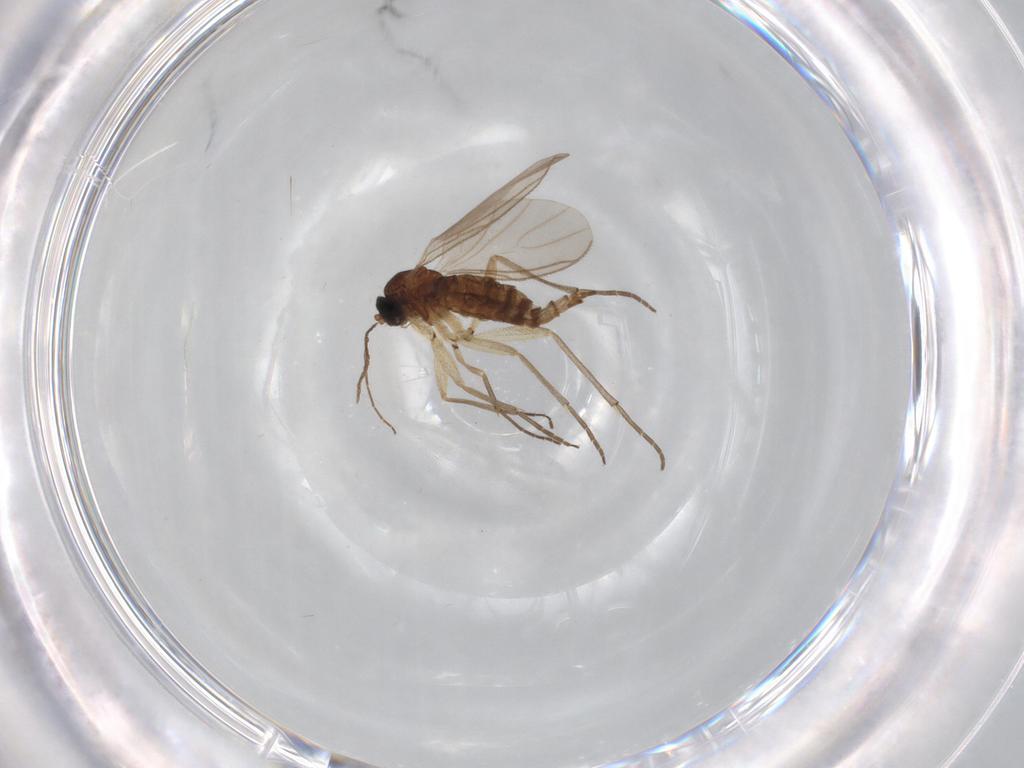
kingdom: Animalia
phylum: Arthropoda
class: Insecta
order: Diptera
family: Sciaridae
